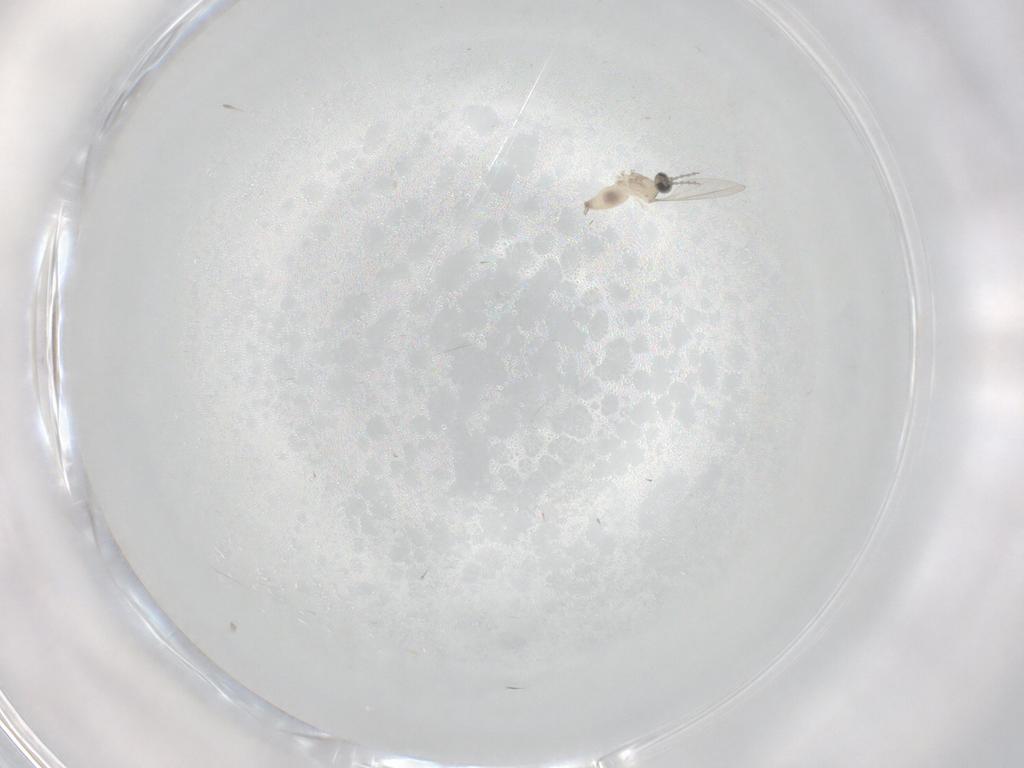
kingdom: Animalia
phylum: Arthropoda
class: Insecta
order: Diptera
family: Cecidomyiidae
